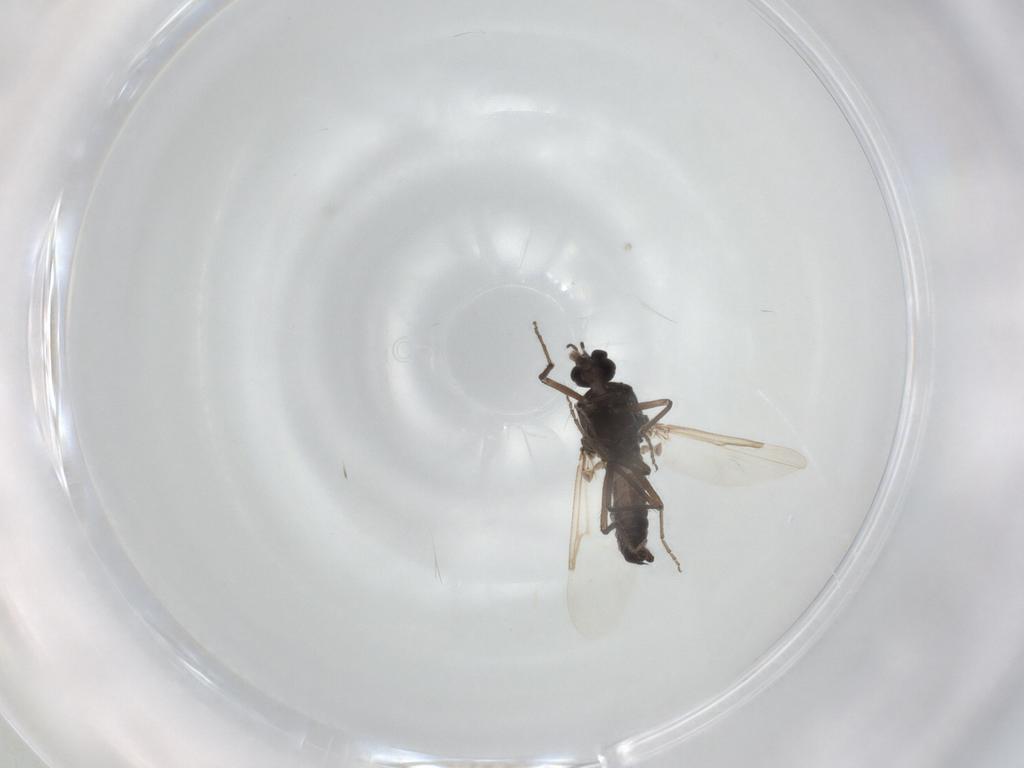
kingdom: Animalia
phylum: Arthropoda
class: Insecta
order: Diptera
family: Ceratopogonidae
